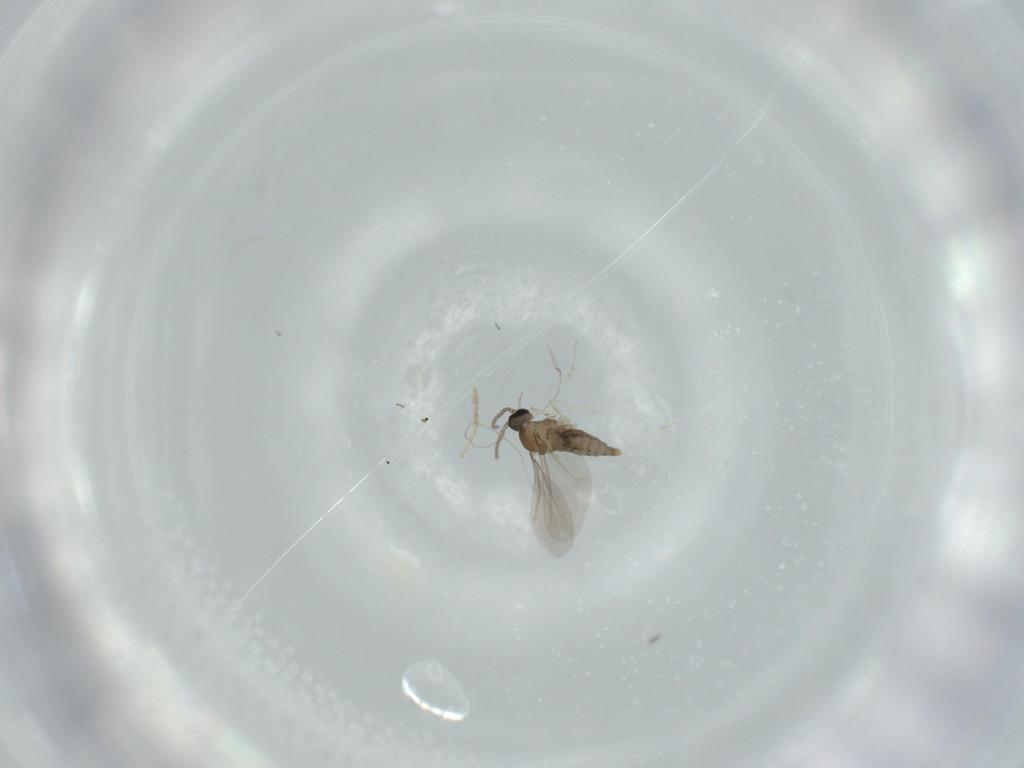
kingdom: Animalia
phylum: Arthropoda
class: Insecta
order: Diptera
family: Cecidomyiidae
